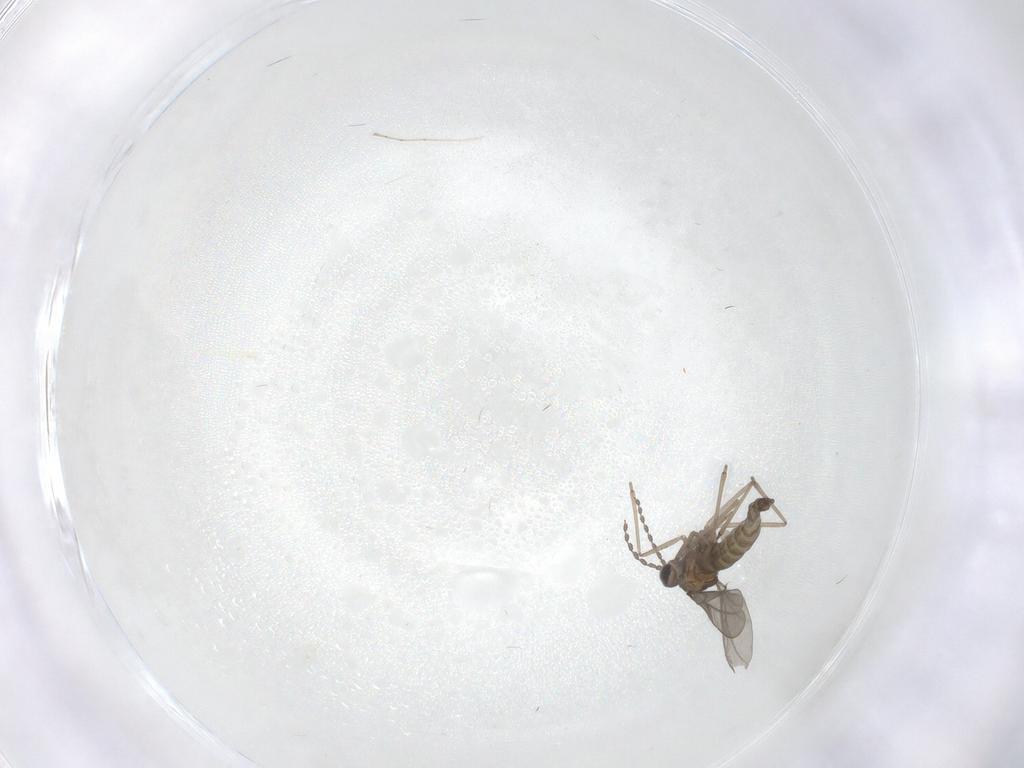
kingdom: Animalia
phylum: Arthropoda
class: Insecta
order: Diptera
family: Cecidomyiidae
